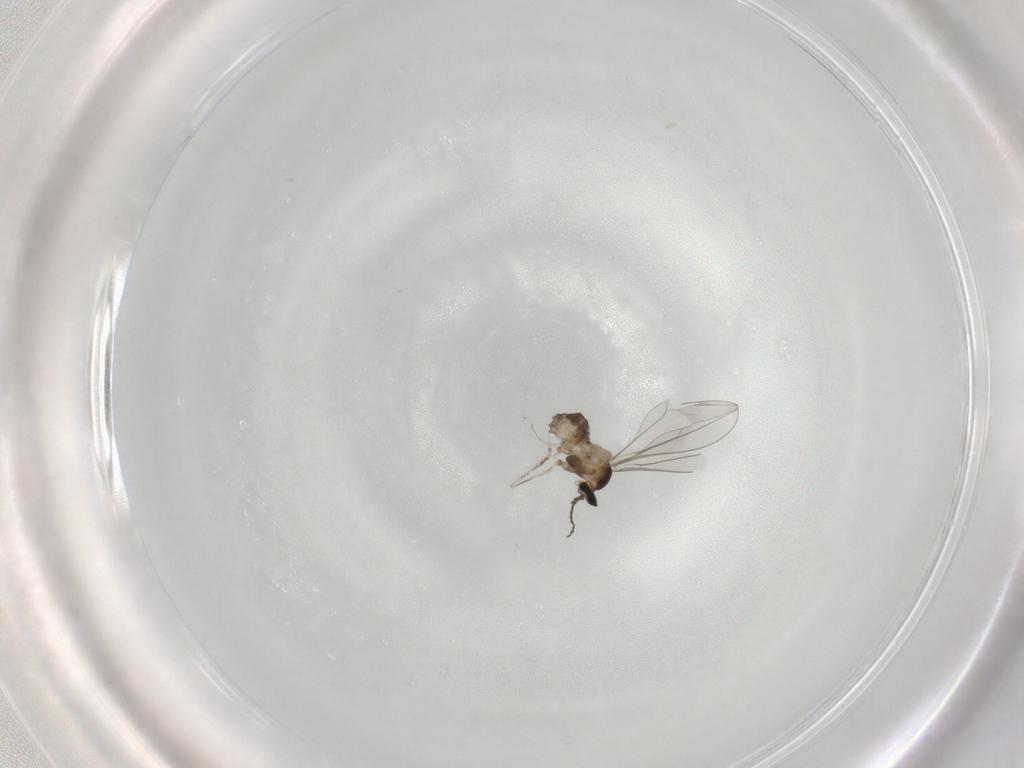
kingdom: Animalia
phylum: Arthropoda
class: Insecta
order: Diptera
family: Cecidomyiidae
